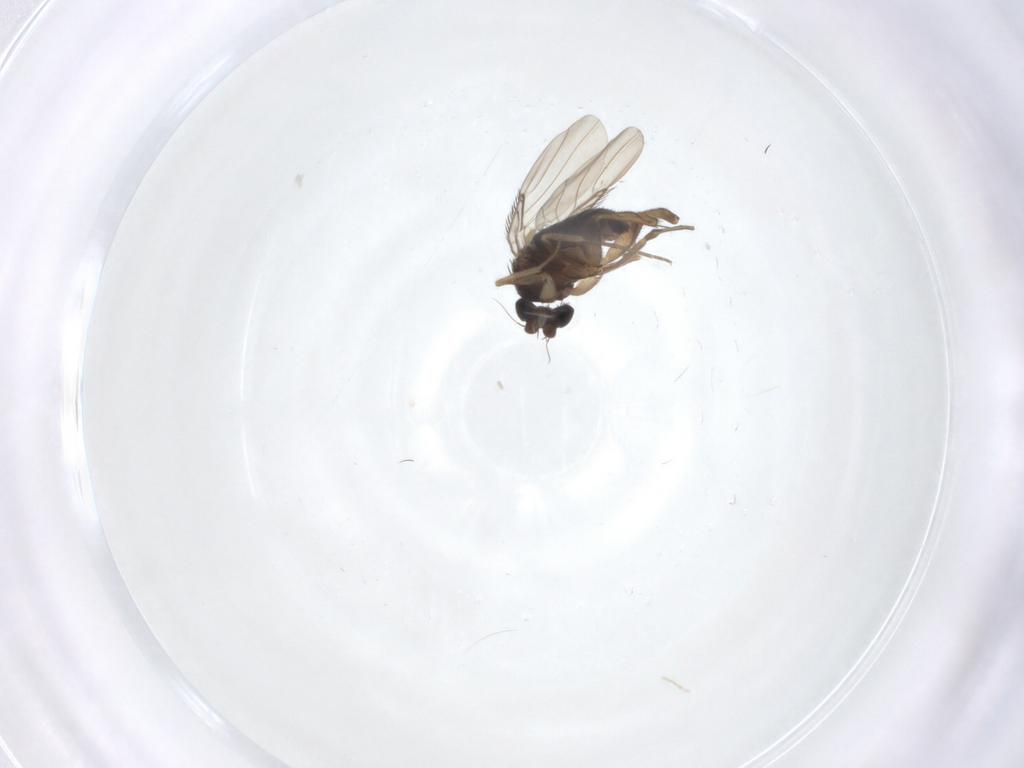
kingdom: Animalia
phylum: Arthropoda
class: Insecta
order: Diptera
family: Phoridae
